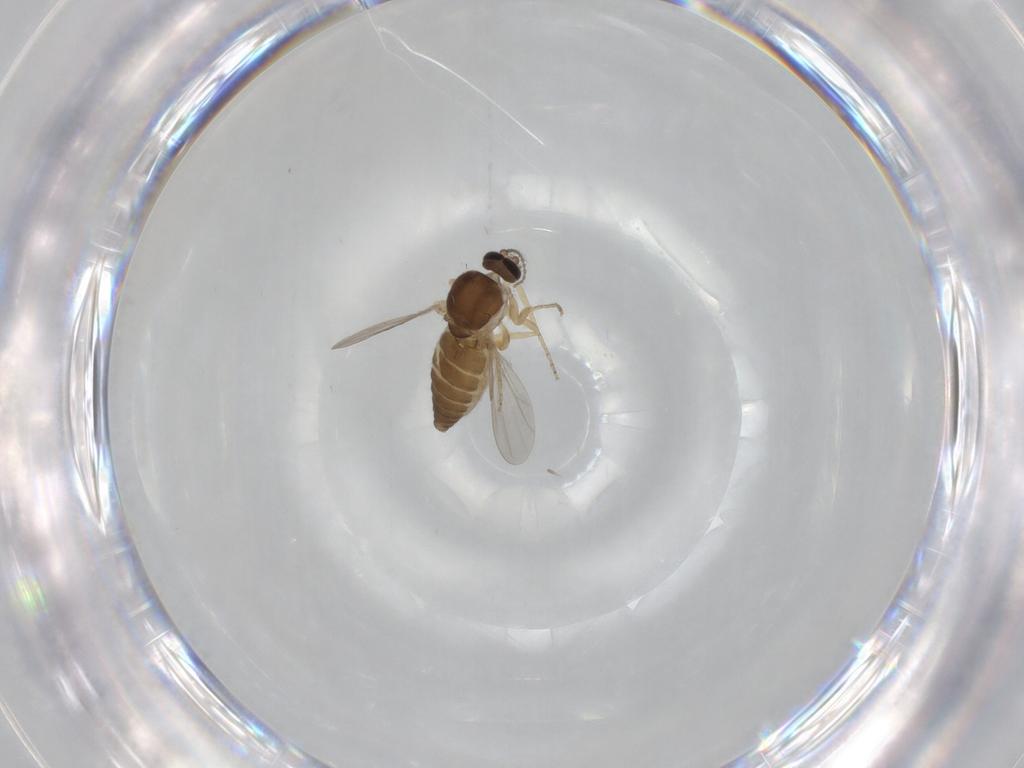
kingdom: Animalia
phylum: Arthropoda
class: Insecta
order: Diptera
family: Ceratopogonidae
